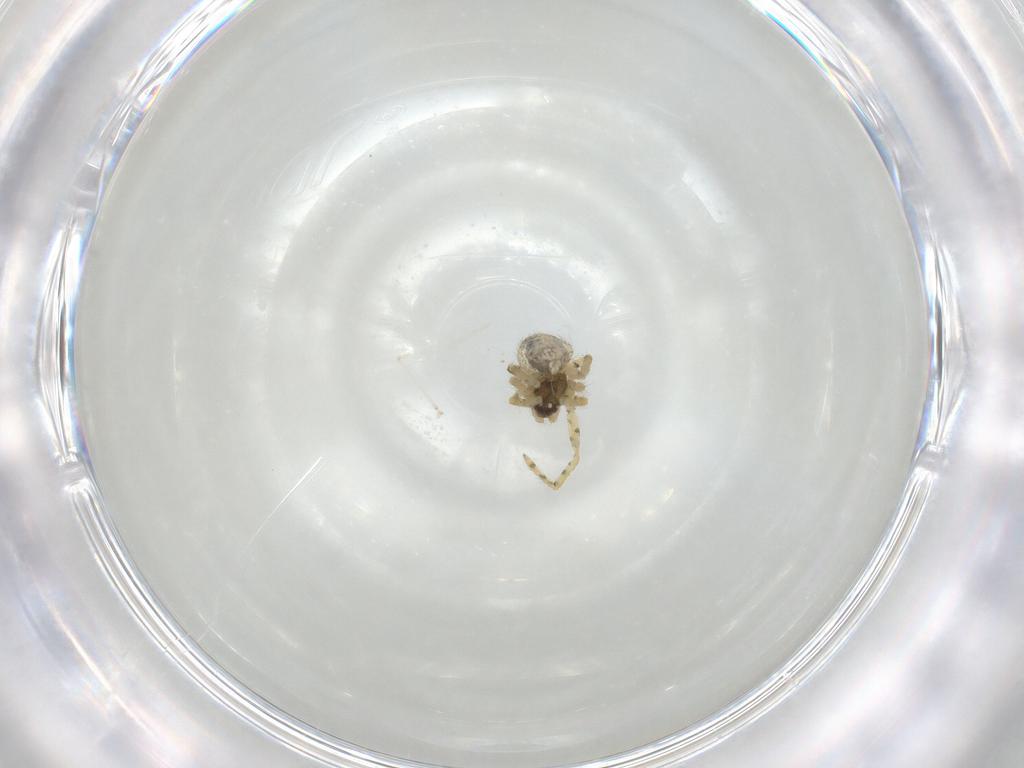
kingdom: Animalia
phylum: Arthropoda
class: Arachnida
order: Araneae
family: Theridiidae
